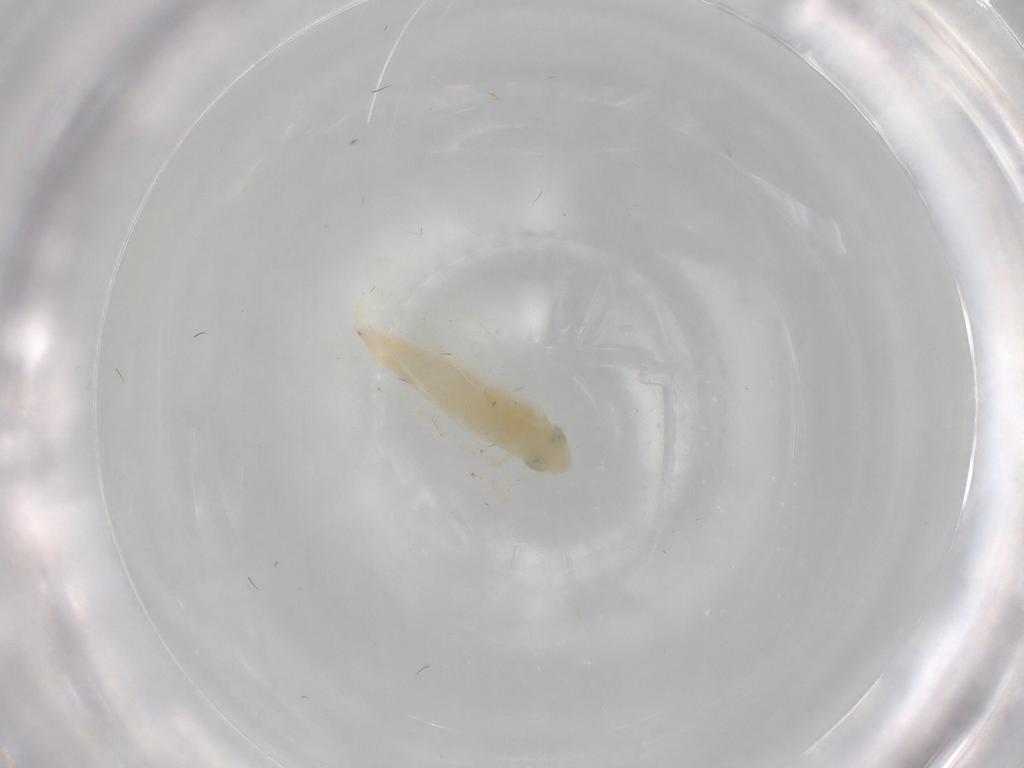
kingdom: Animalia
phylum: Arthropoda
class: Insecta
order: Hemiptera
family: Cicadellidae
